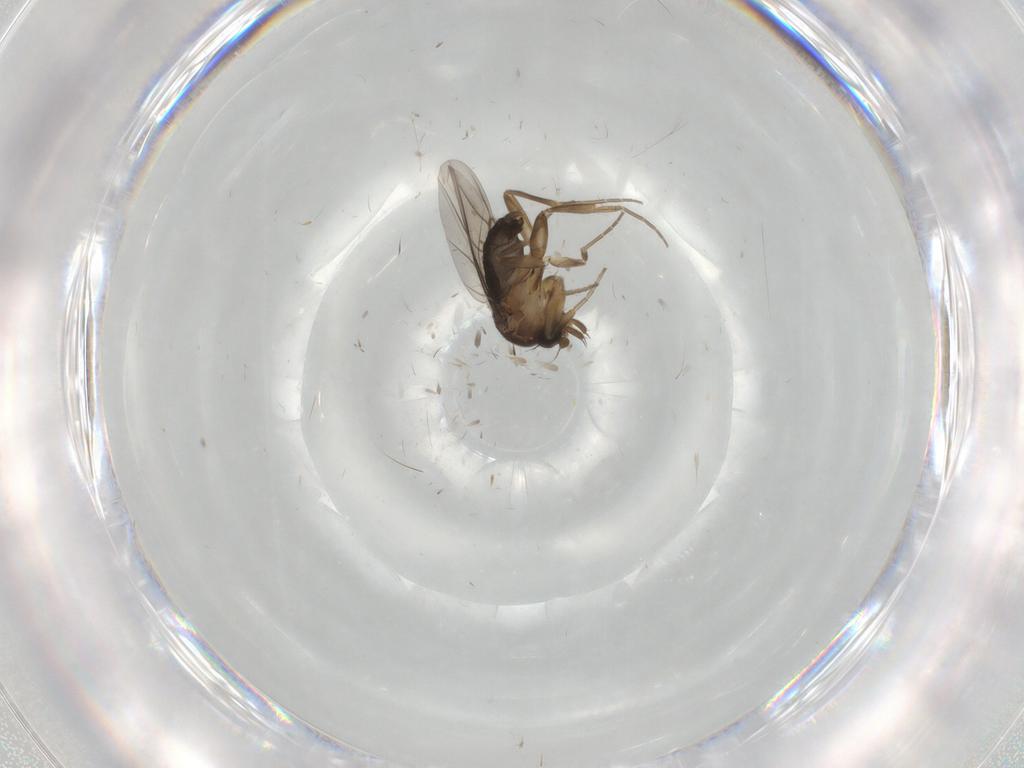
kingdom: Animalia
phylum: Arthropoda
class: Insecta
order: Diptera
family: Phoridae
